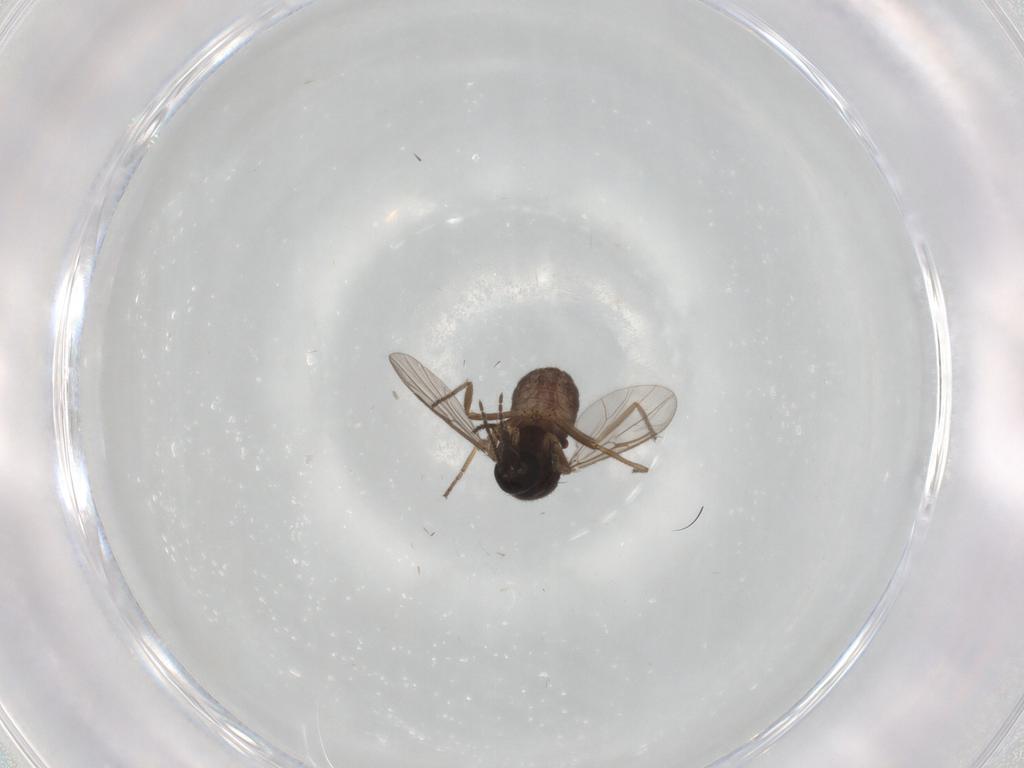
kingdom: Animalia
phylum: Arthropoda
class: Insecta
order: Diptera
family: Ceratopogonidae
